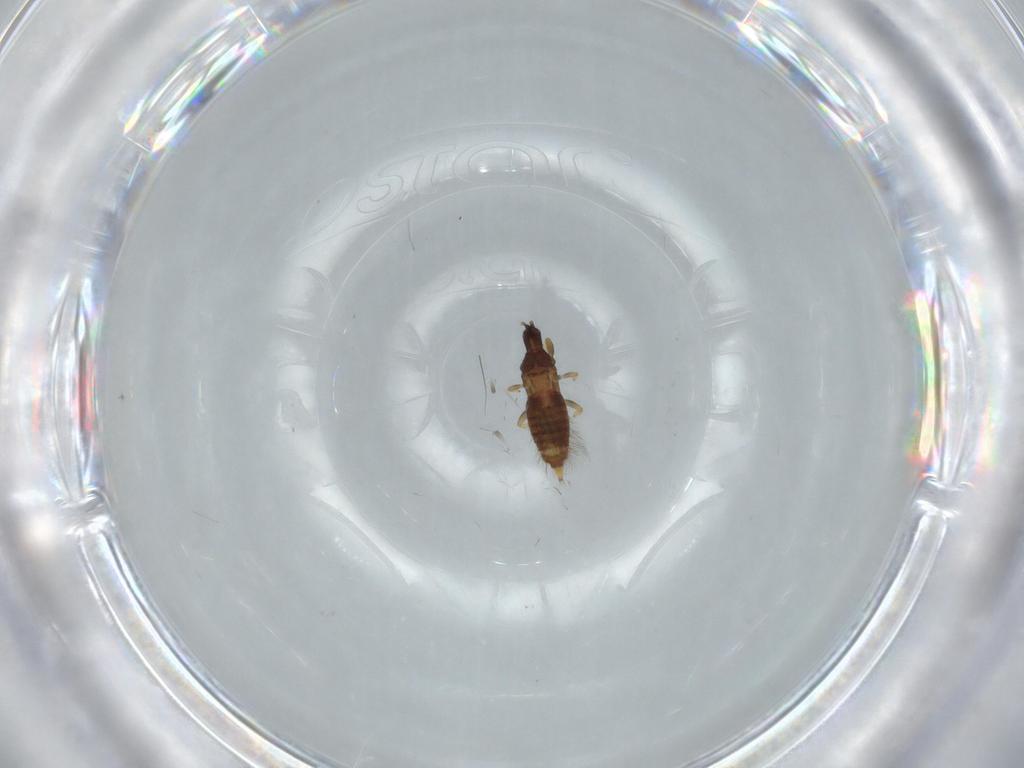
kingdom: Animalia
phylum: Arthropoda
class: Insecta
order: Thysanoptera
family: Phlaeothripidae
